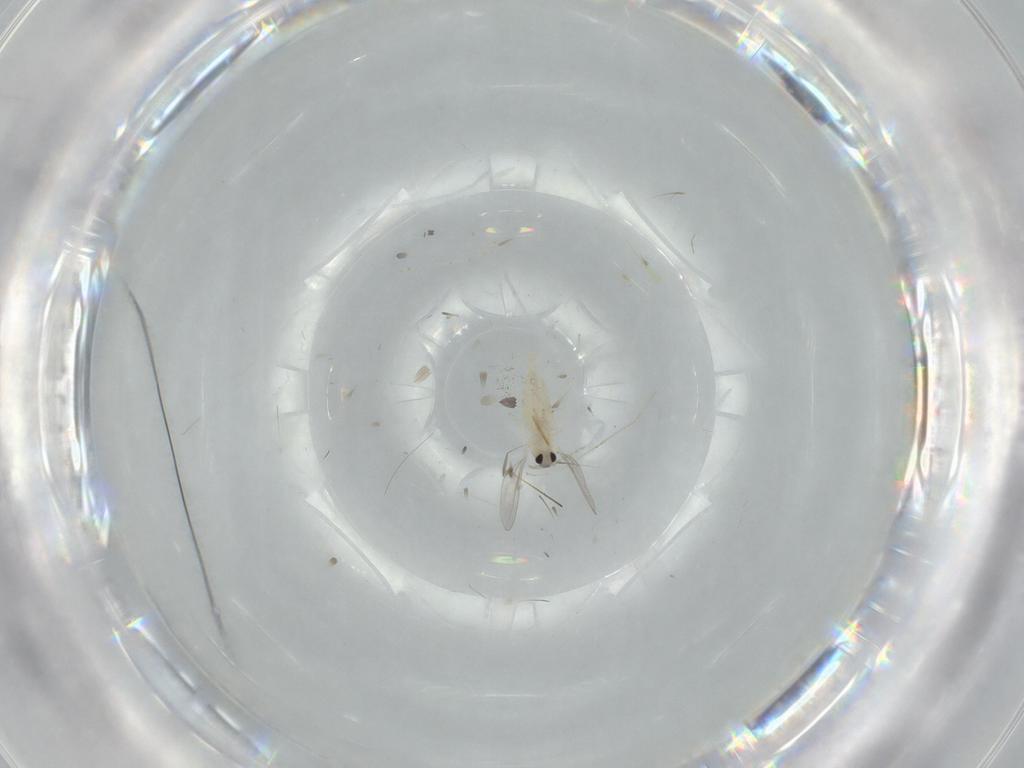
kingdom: Animalia
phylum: Arthropoda
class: Insecta
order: Diptera
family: Cecidomyiidae
